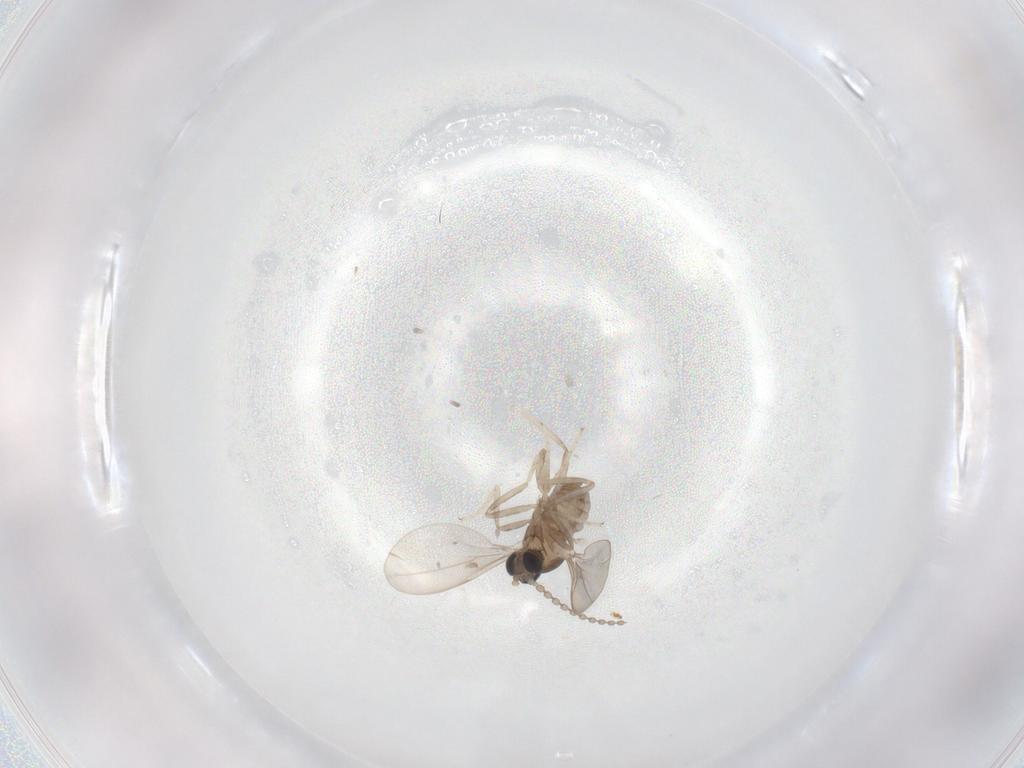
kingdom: Animalia
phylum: Arthropoda
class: Insecta
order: Diptera
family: Cecidomyiidae
